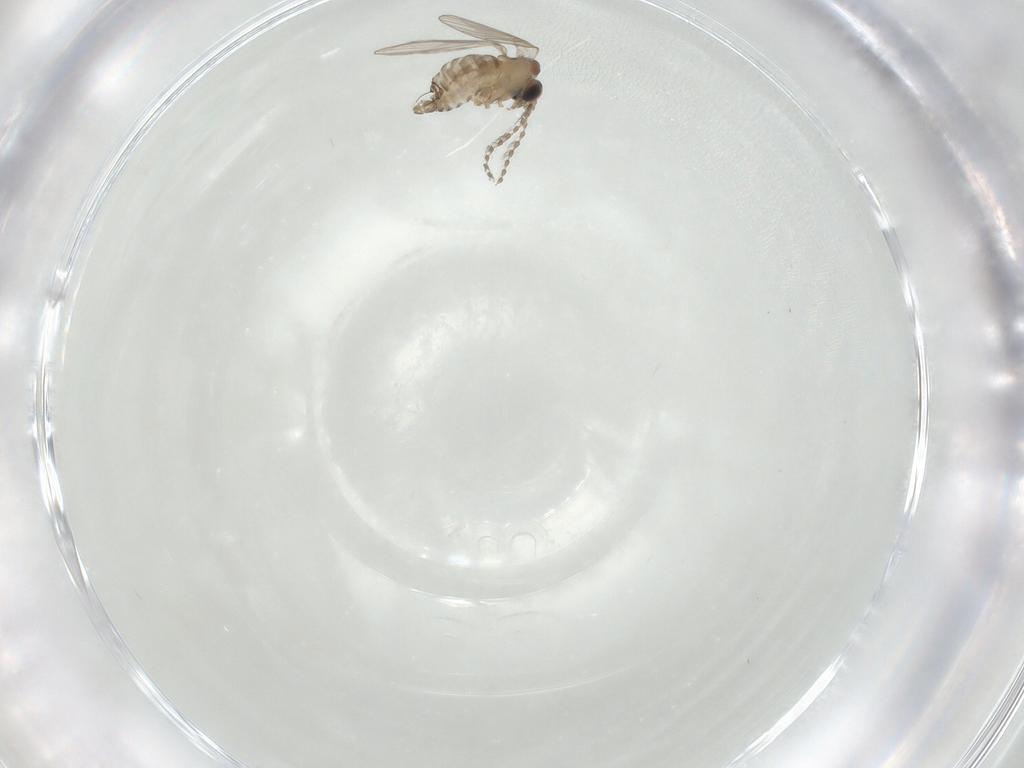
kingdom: Animalia
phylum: Arthropoda
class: Insecta
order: Diptera
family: Psychodidae
